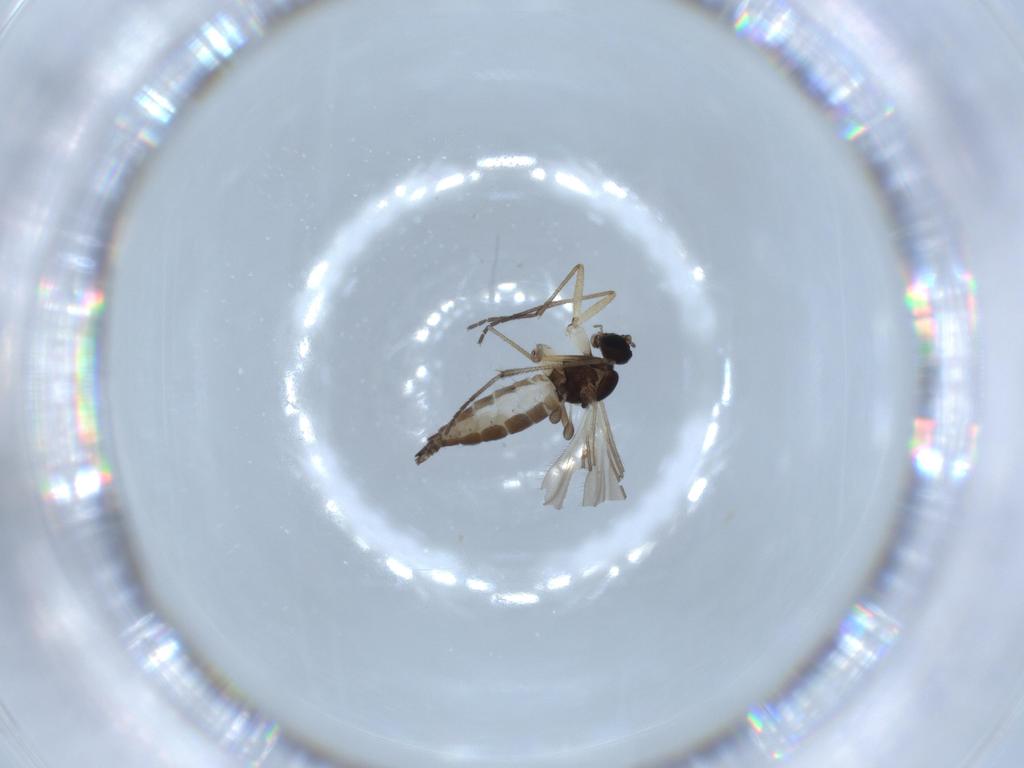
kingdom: Animalia
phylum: Arthropoda
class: Insecta
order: Diptera
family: Sciaridae
